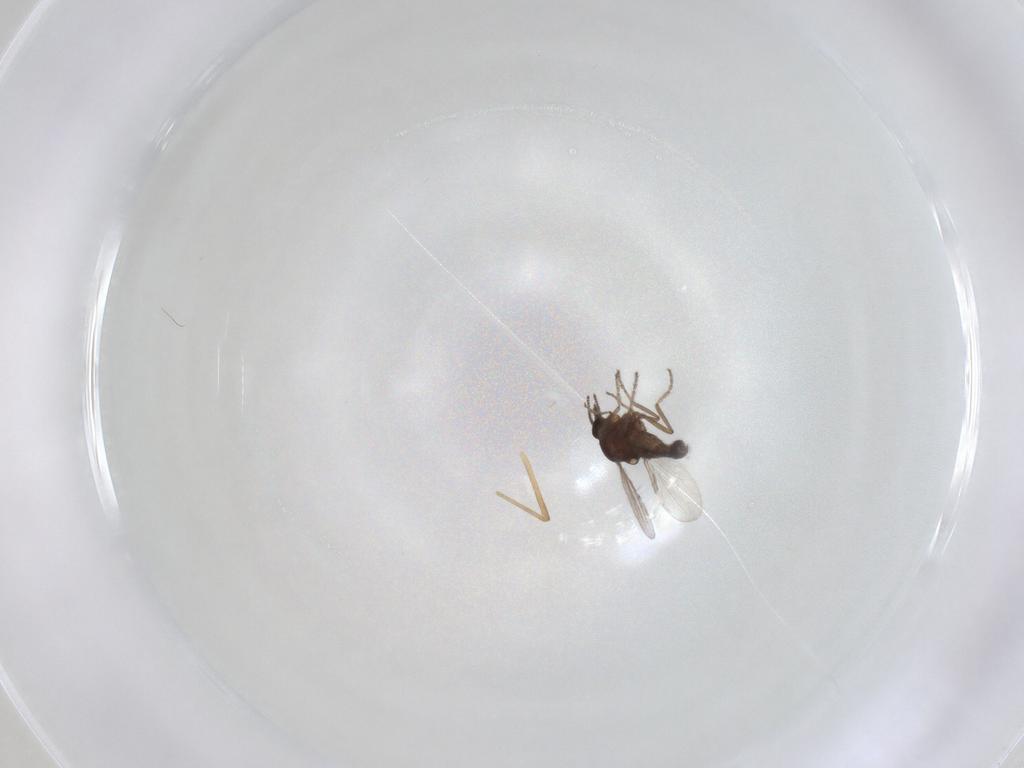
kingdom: Animalia
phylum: Arthropoda
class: Insecta
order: Diptera
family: Ceratopogonidae
